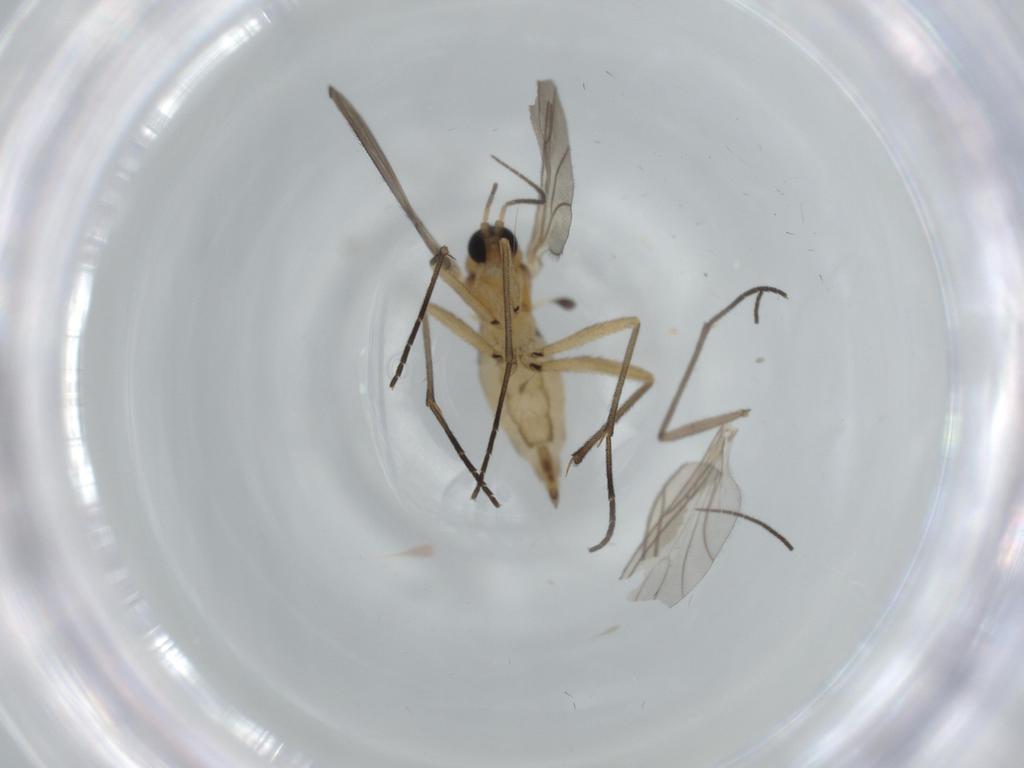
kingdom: Animalia
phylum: Arthropoda
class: Insecta
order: Diptera
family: Sciaridae
